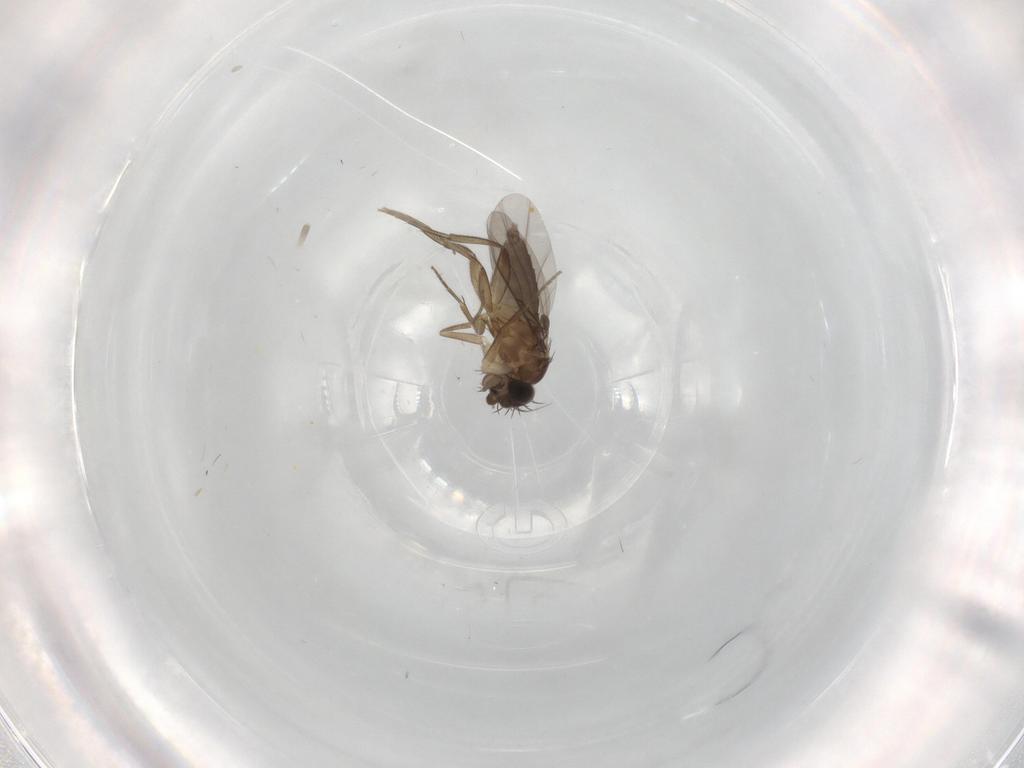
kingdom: Animalia
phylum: Arthropoda
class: Insecta
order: Diptera
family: Phoridae
